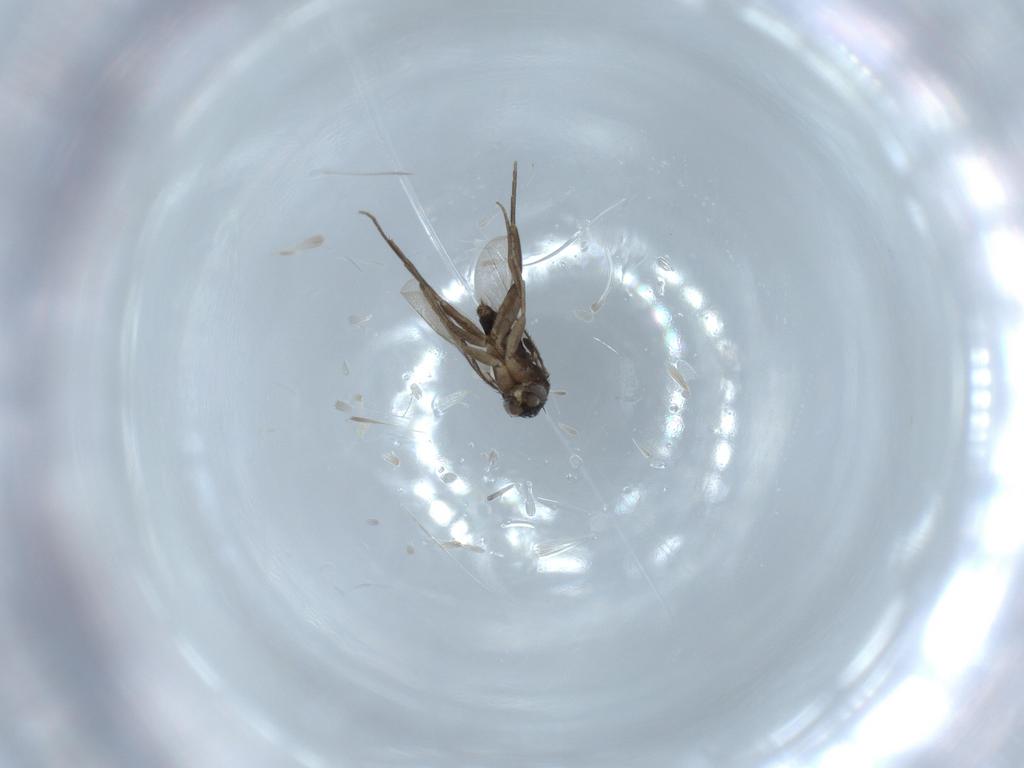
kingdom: Animalia
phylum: Arthropoda
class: Insecta
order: Diptera
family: Phoridae
